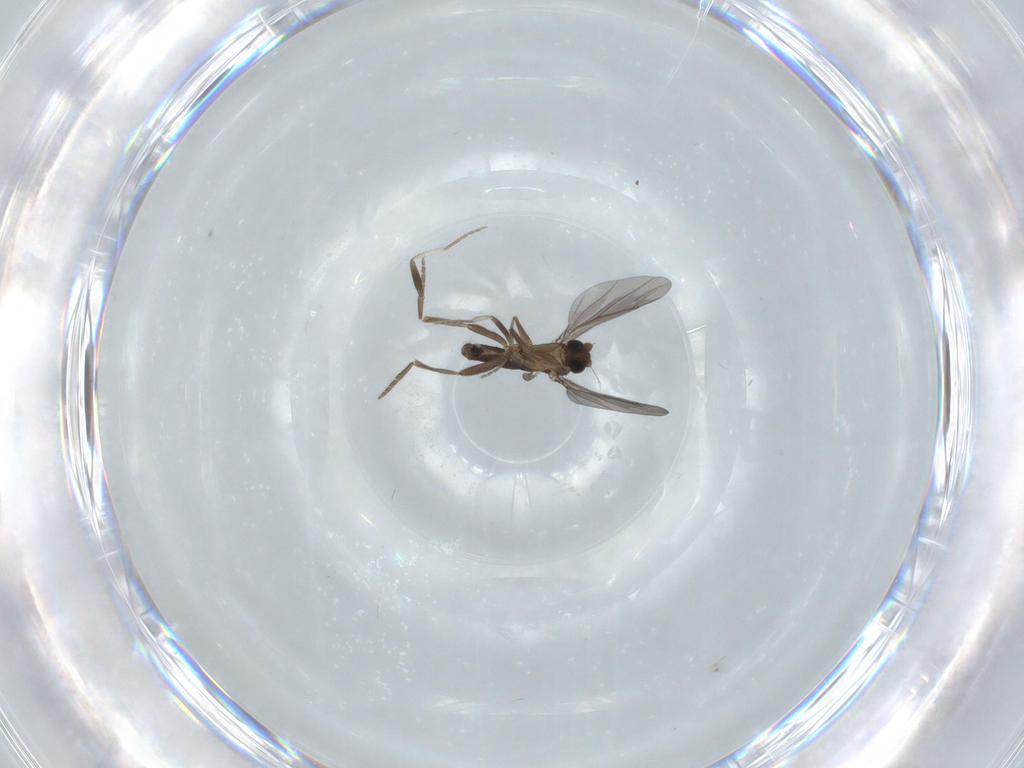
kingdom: Animalia
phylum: Arthropoda
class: Insecta
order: Diptera
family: Phoridae
